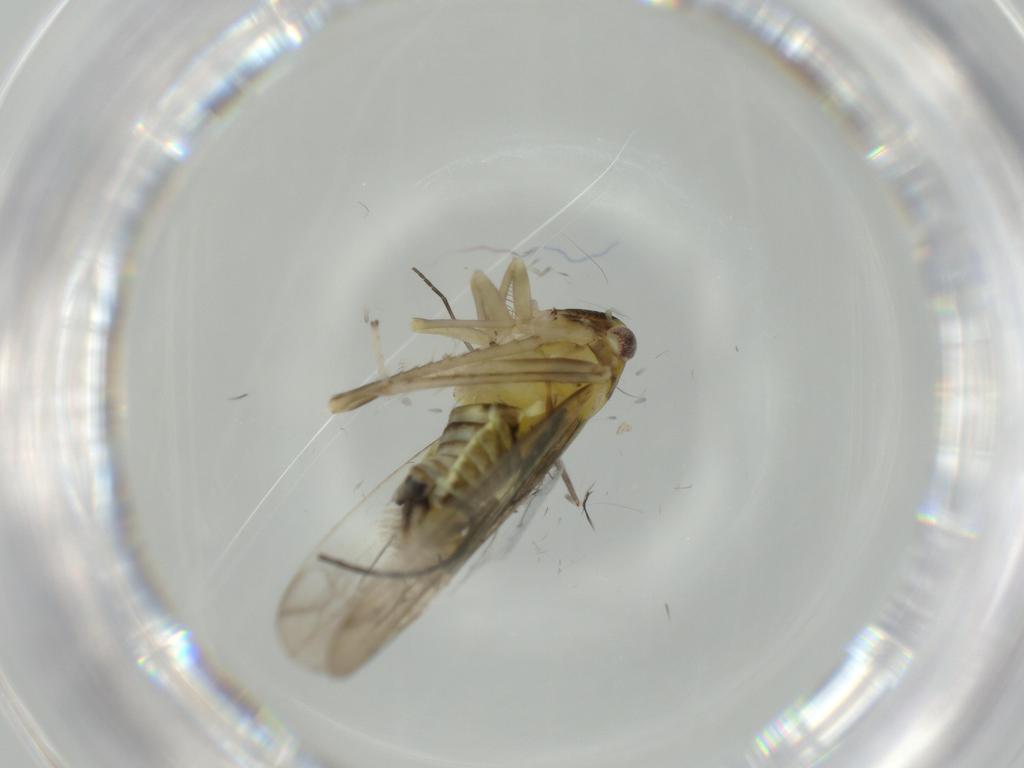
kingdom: Animalia
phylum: Arthropoda
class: Insecta
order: Hemiptera
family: Cicadellidae
